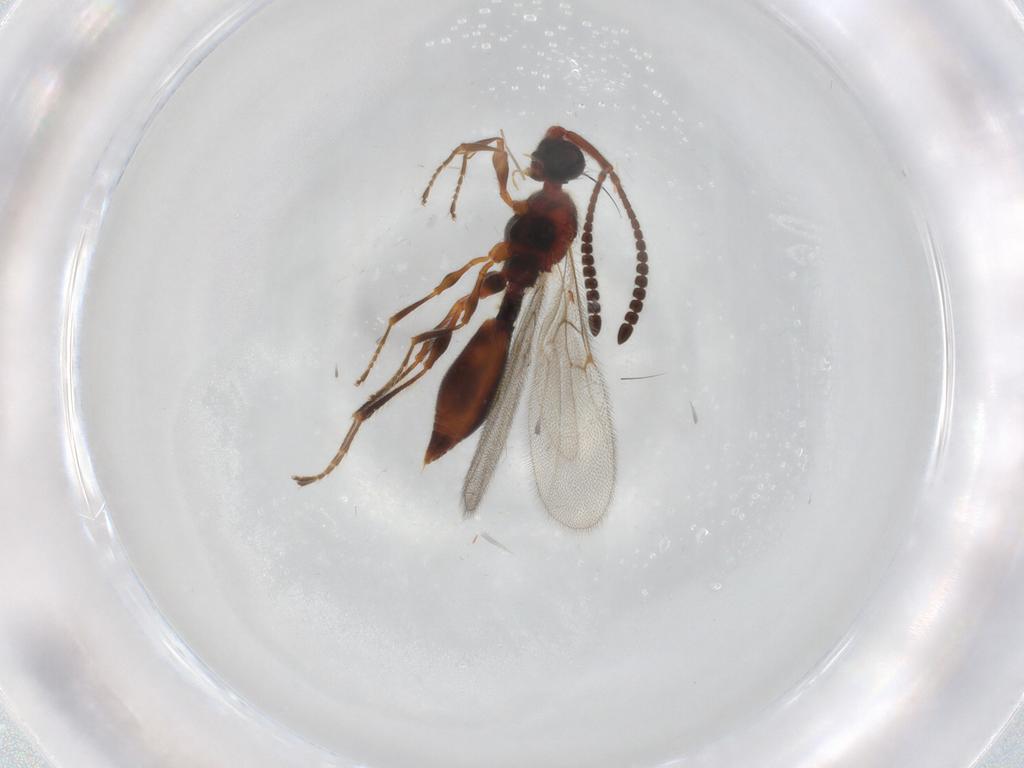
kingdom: Animalia
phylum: Arthropoda
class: Insecta
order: Hymenoptera
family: Diapriidae
